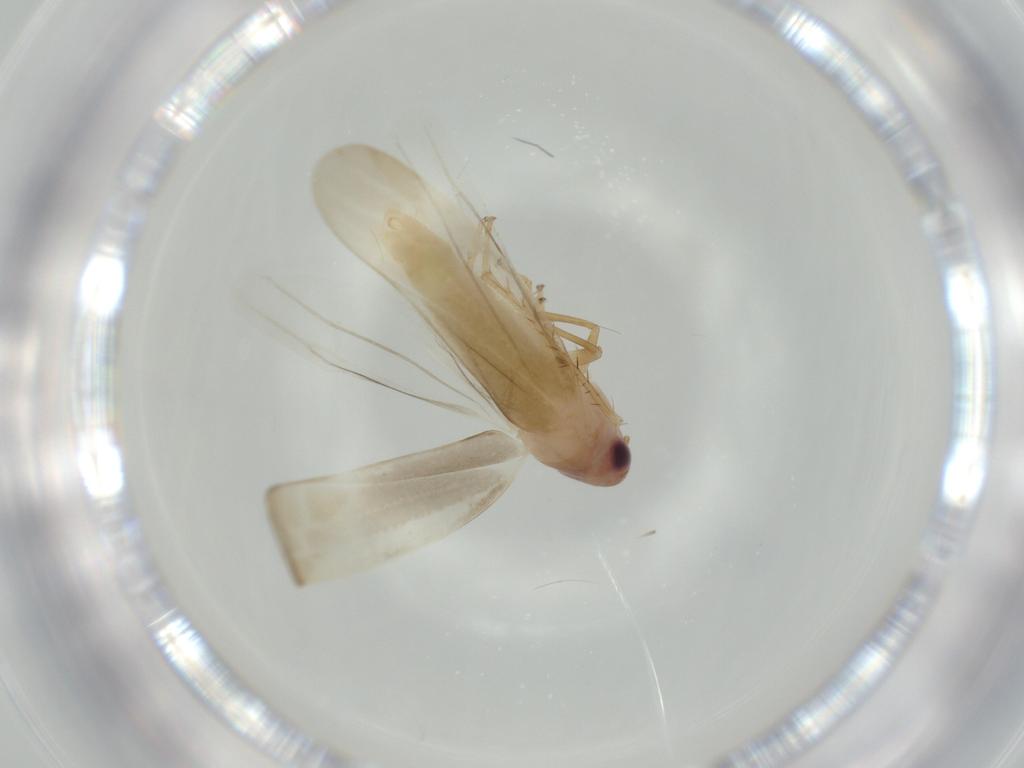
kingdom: Animalia
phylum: Arthropoda
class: Insecta
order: Hemiptera
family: Cicadellidae
